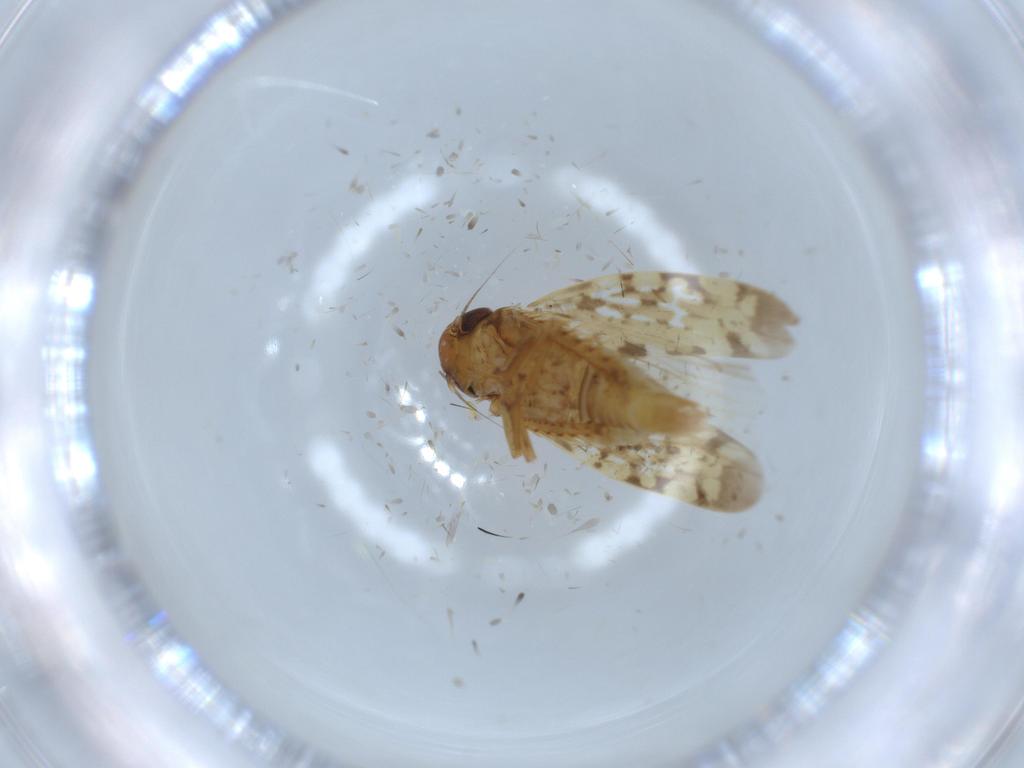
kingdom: Animalia
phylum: Arthropoda
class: Insecta
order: Hemiptera
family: Cicadellidae
